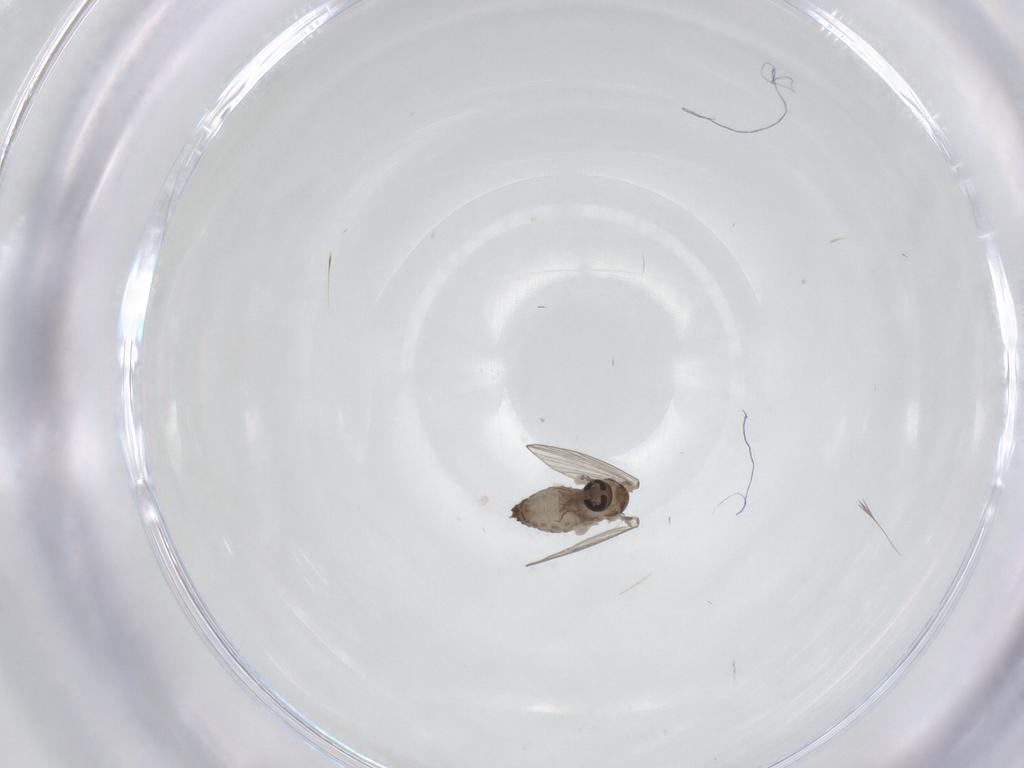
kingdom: Animalia
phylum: Arthropoda
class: Insecta
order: Diptera
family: Psychodidae
